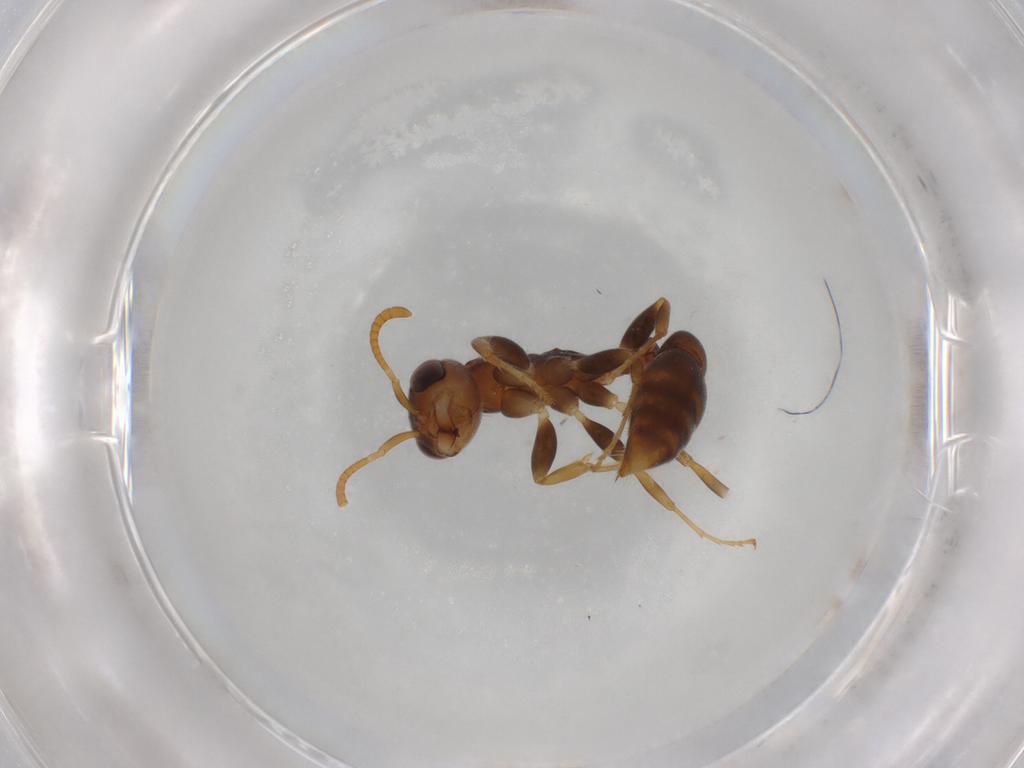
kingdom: Animalia
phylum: Arthropoda
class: Insecta
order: Hymenoptera
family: Formicidae
